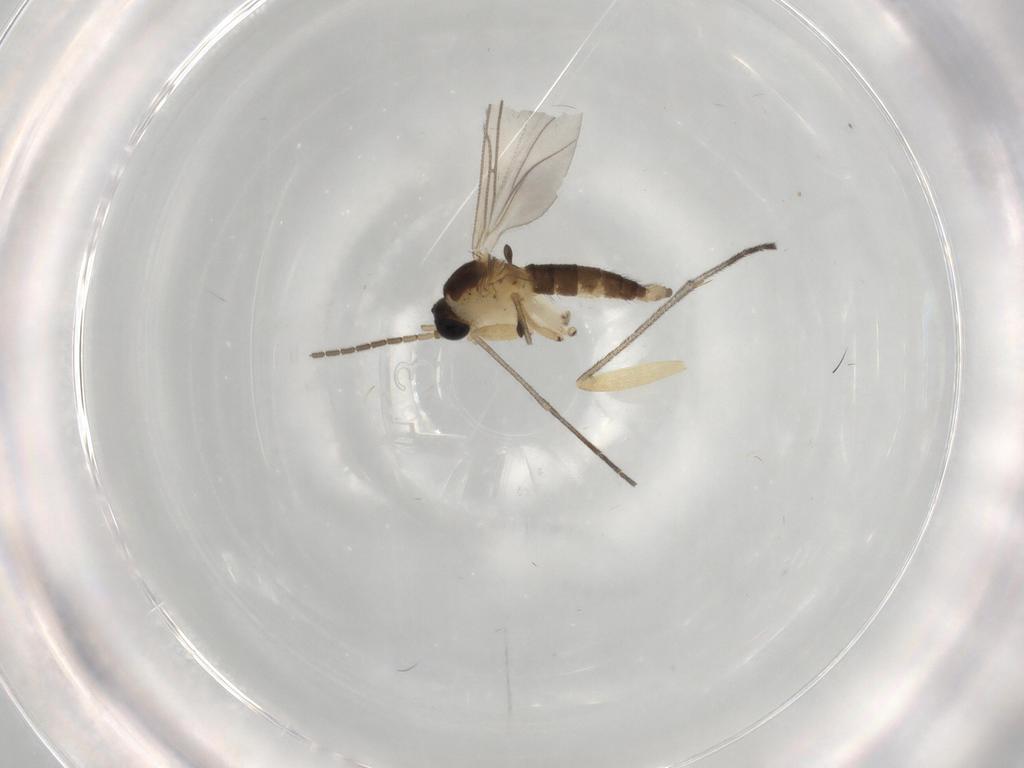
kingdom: Animalia
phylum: Arthropoda
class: Insecta
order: Diptera
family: Sciaridae
